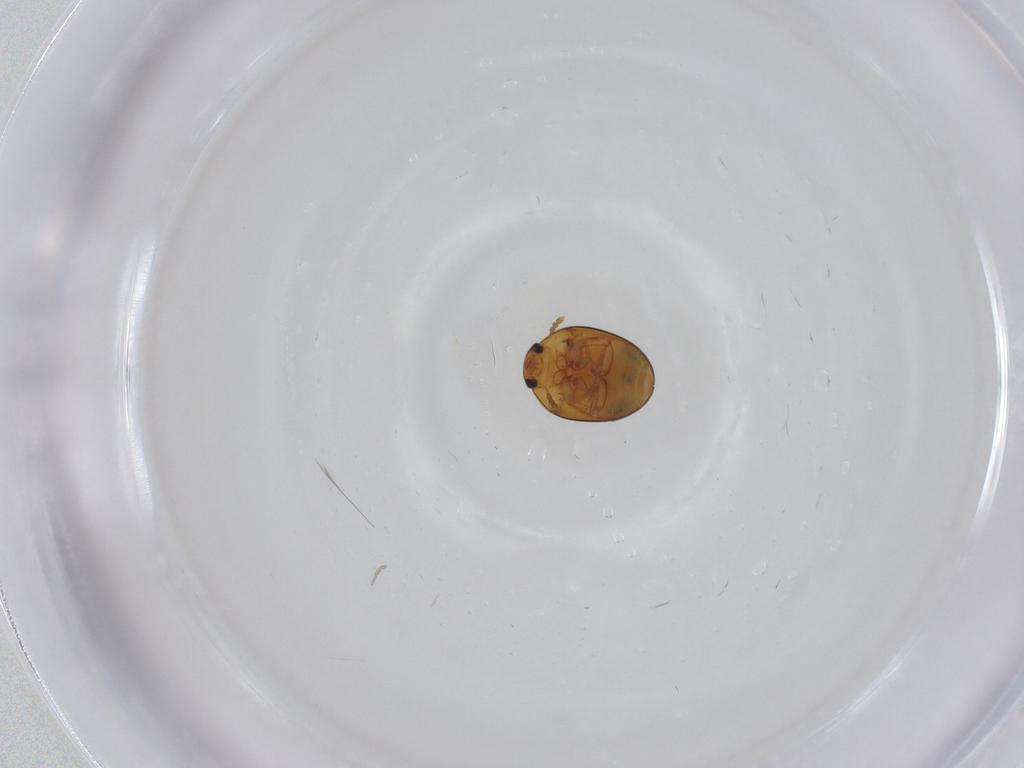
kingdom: Animalia
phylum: Arthropoda
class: Insecta
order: Coleoptera
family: Phalacridae
